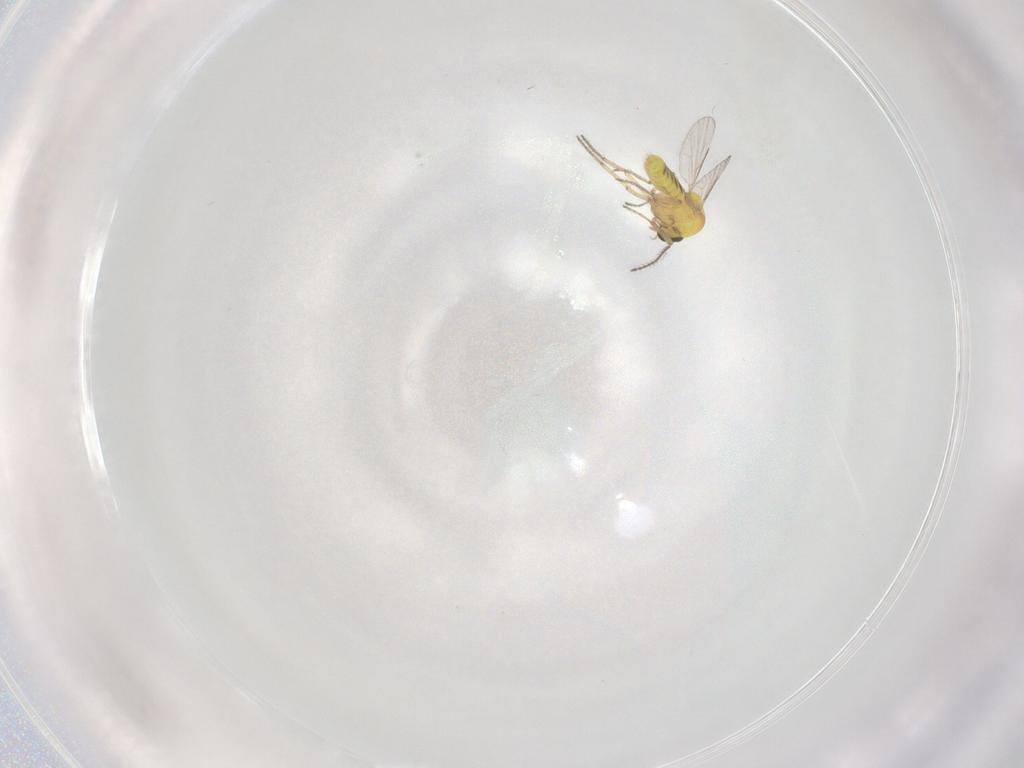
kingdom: Animalia
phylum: Arthropoda
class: Insecta
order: Diptera
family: Ceratopogonidae
